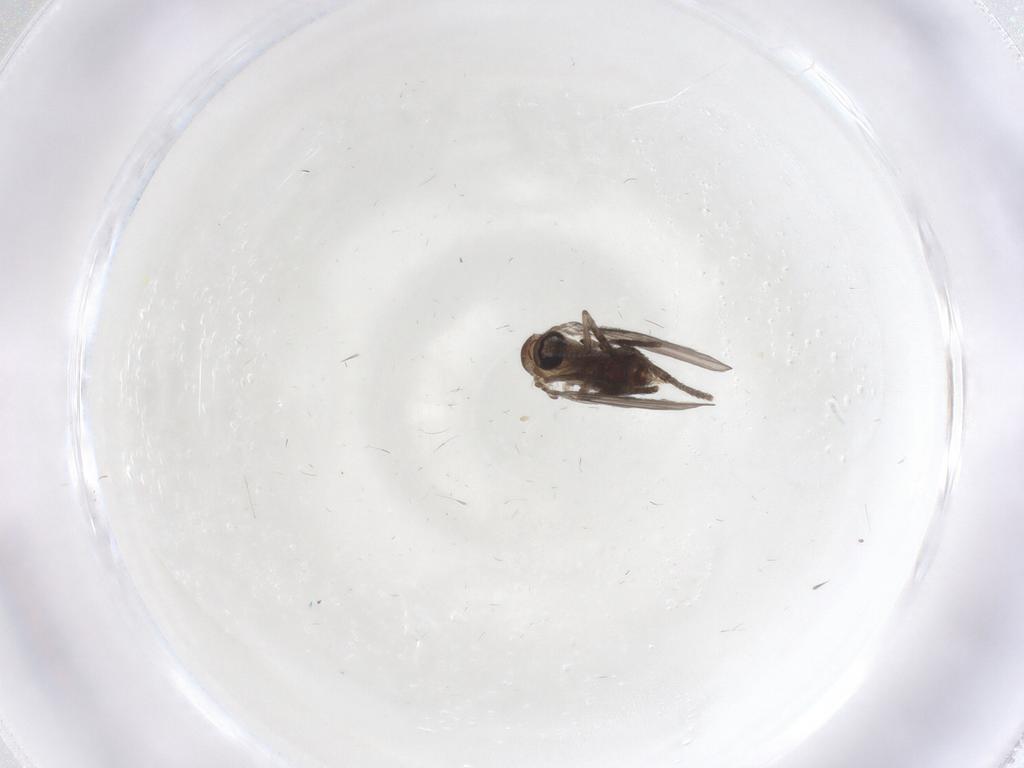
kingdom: Animalia
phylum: Arthropoda
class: Insecta
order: Diptera
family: Psychodidae
